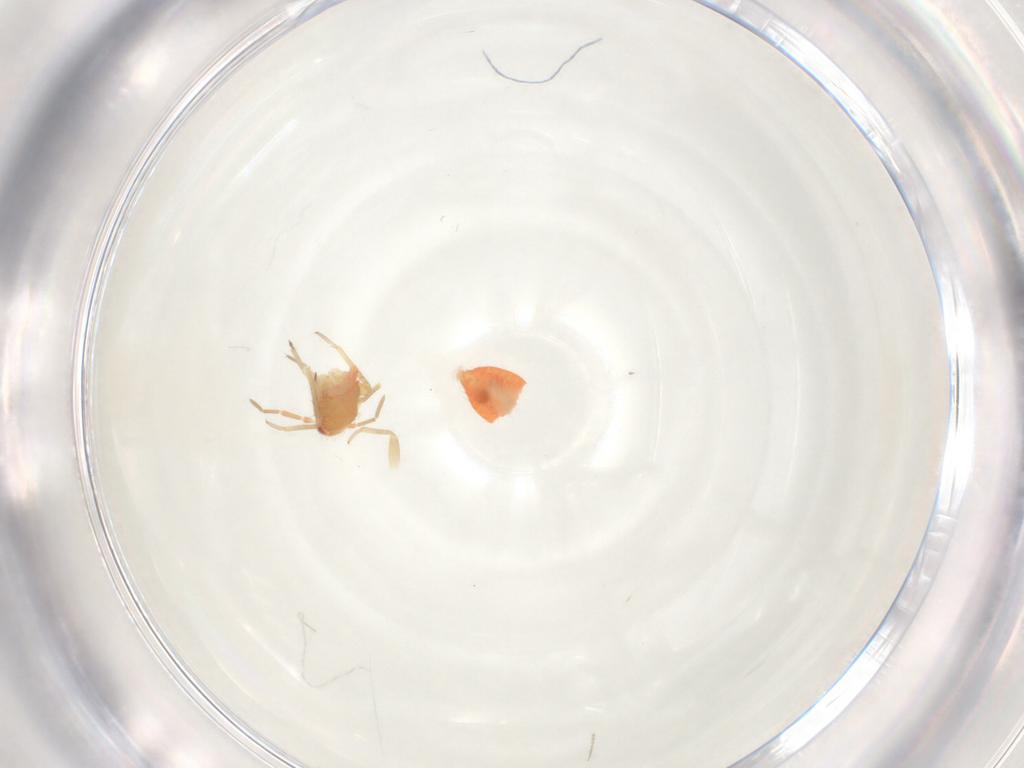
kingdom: Animalia
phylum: Arthropoda
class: Insecta
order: Hemiptera
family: Miridae
